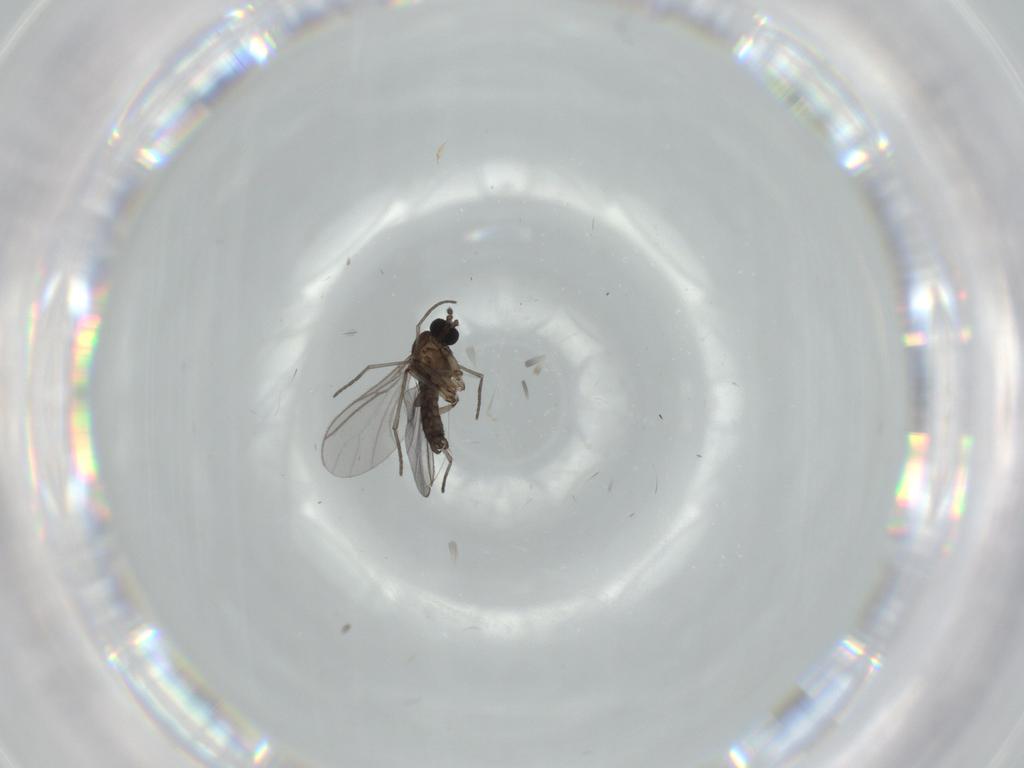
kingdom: Animalia
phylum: Arthropoda
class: Insecta
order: Diptera
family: Sciaridae
